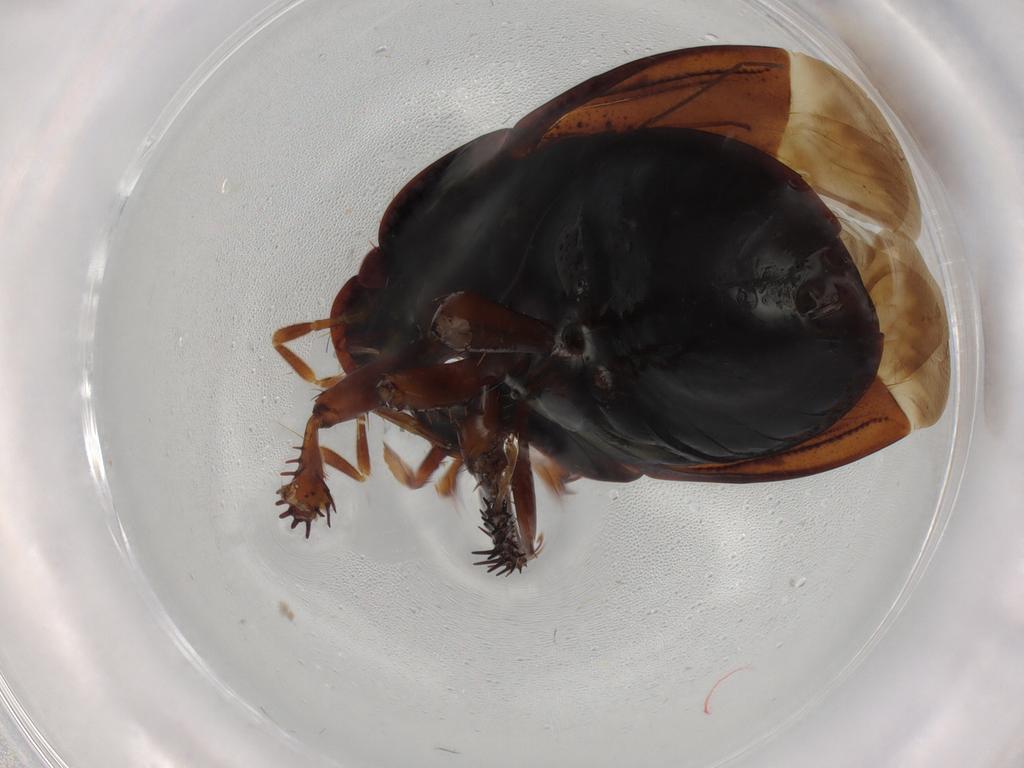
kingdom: Animalia
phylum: Arthropoda
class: Insecta
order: Hemiptera
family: Cydnidae
